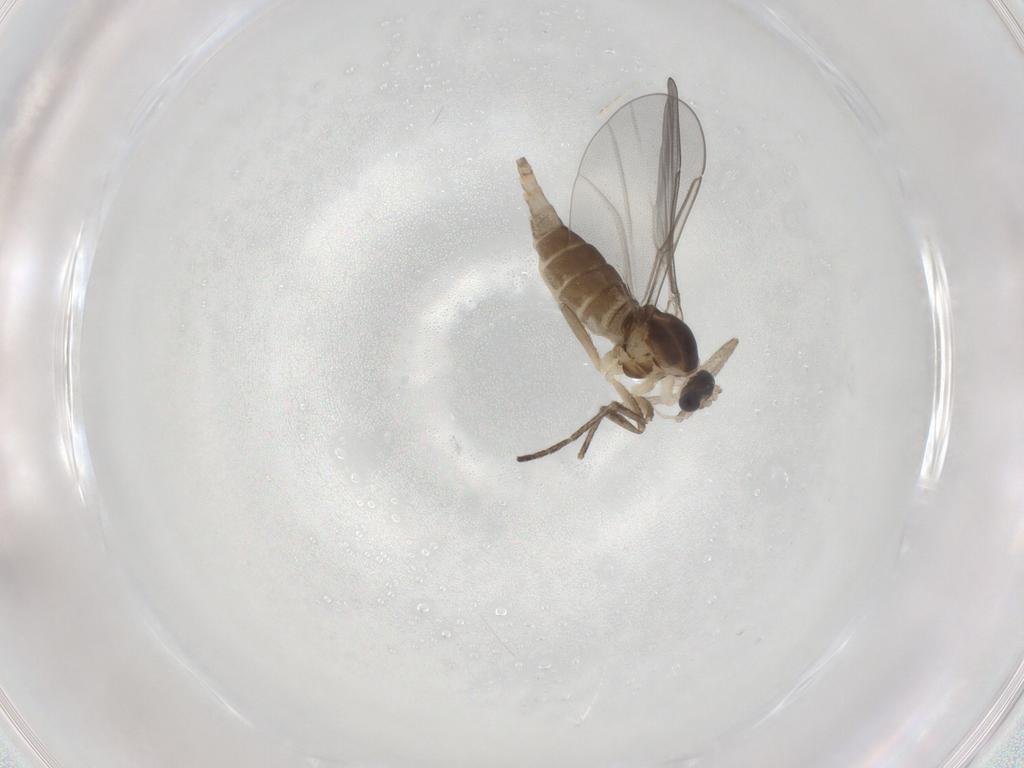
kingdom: Animalia
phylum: Arthropoda
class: Insecta
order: Diptera
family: Cecidomyiidae
